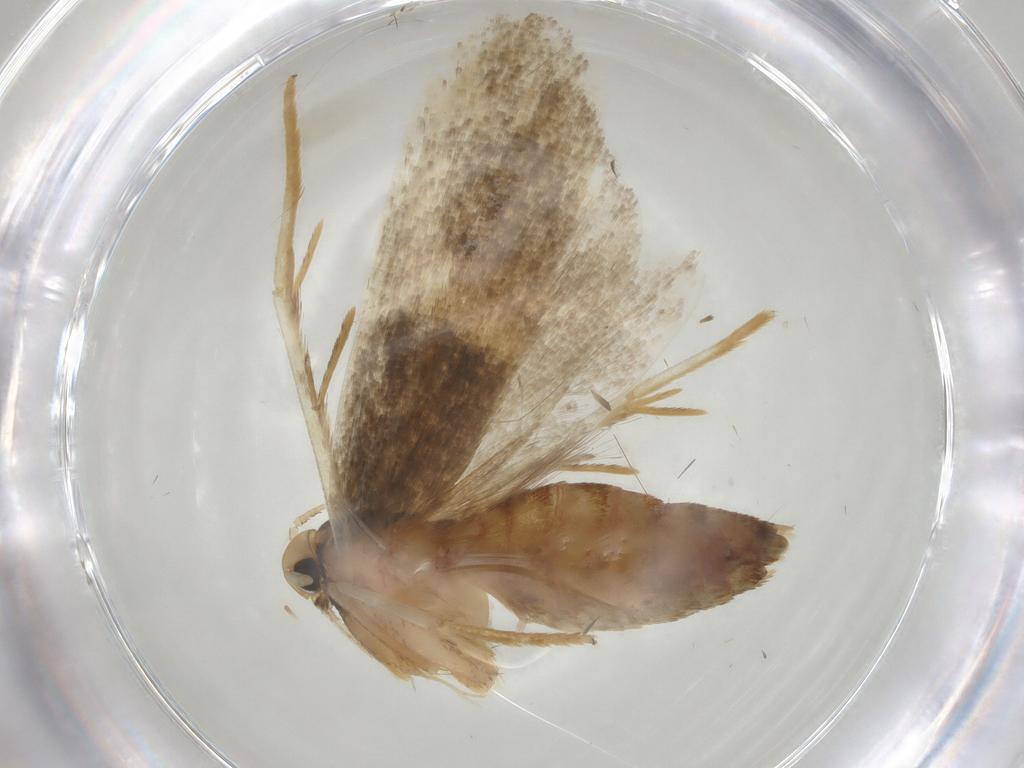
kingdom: Animalia
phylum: Arthropoda
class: Insecta
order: Lepidoptera
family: Lecithoceridae
